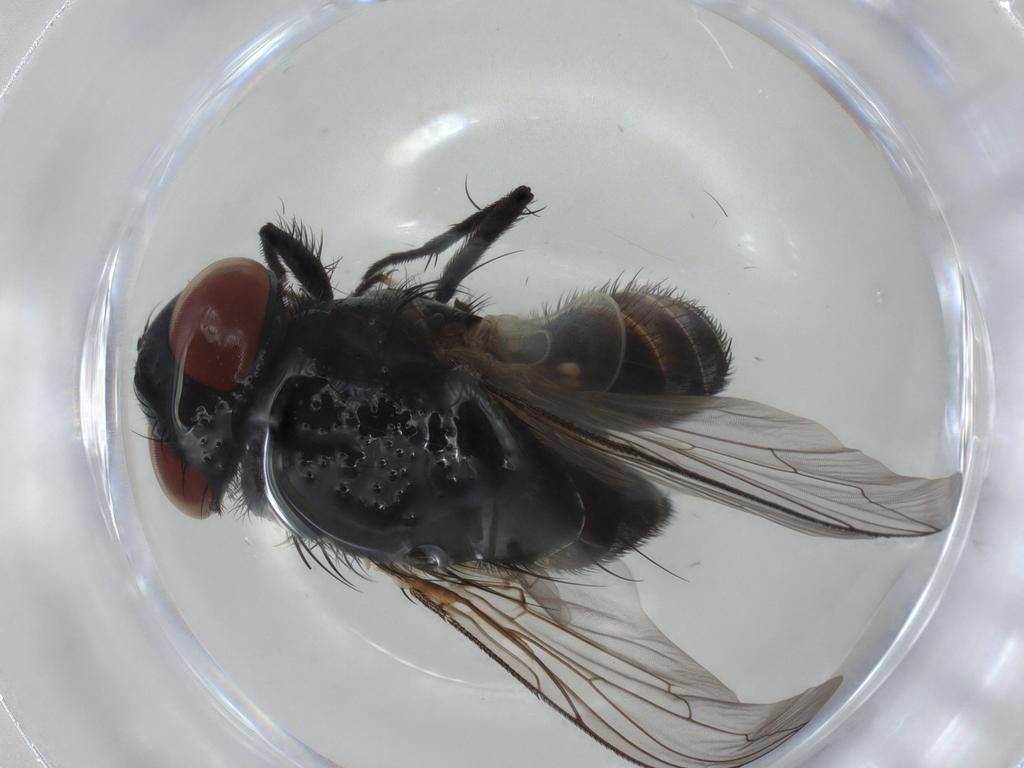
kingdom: Animalia
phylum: Arthropoda
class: Insecta
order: Diptera
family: Sarcophagidae
